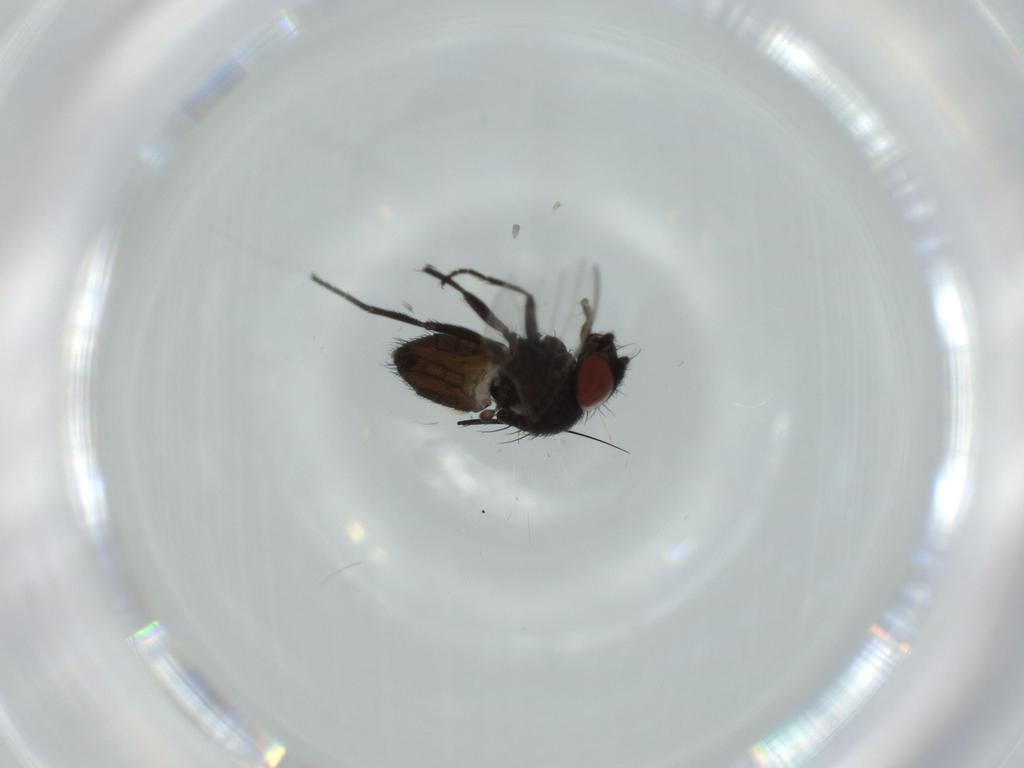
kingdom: Animalia
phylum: Arthropoda
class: Insecta
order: Diptera
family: Milichiidae
